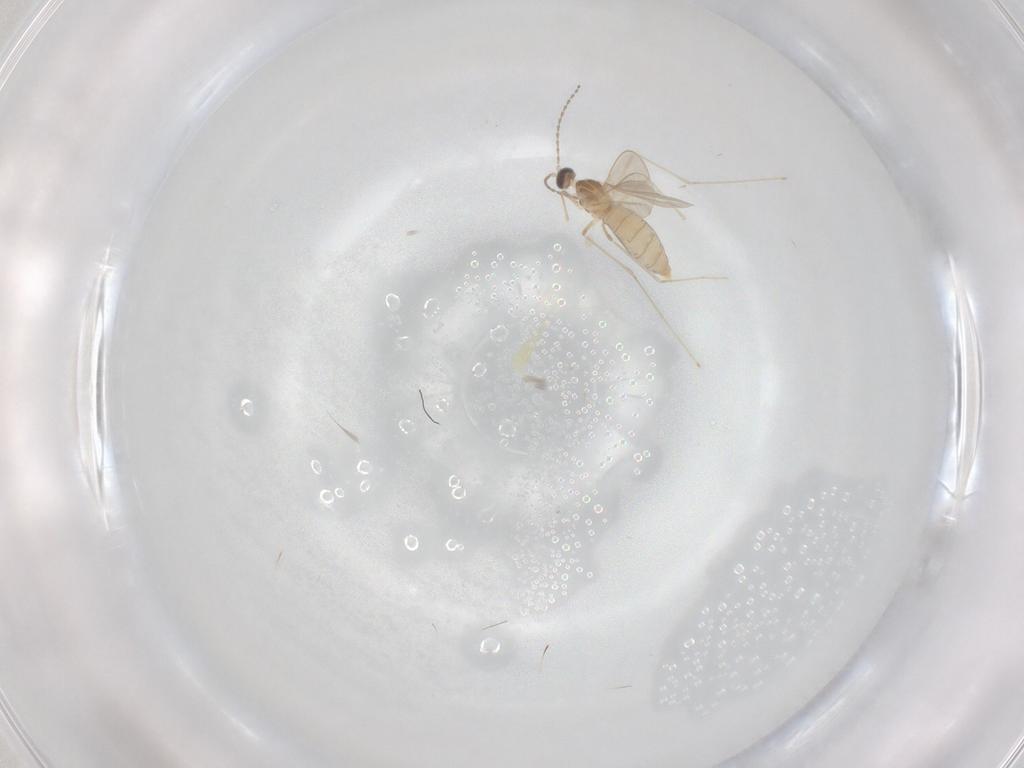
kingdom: Animalia
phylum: Arthropoda
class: Insecta
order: Diptera
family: Cecidomyiidae
